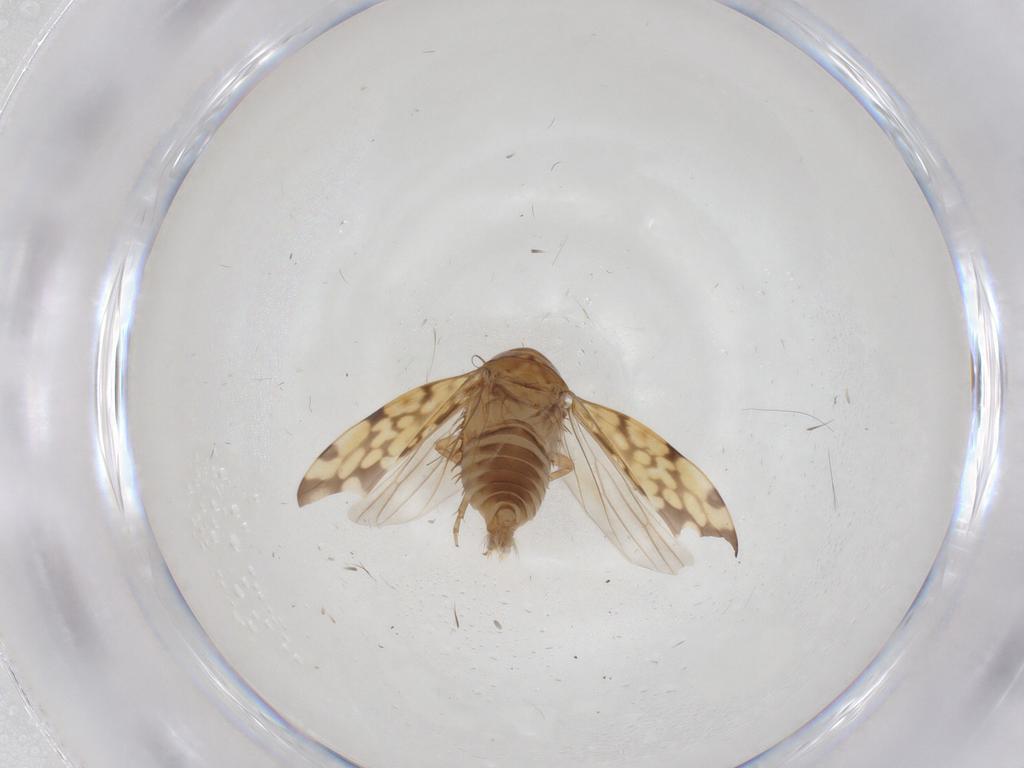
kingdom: Animalia
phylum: Arthropoda
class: Insecta
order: Hemiptera
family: Cicadellidae
